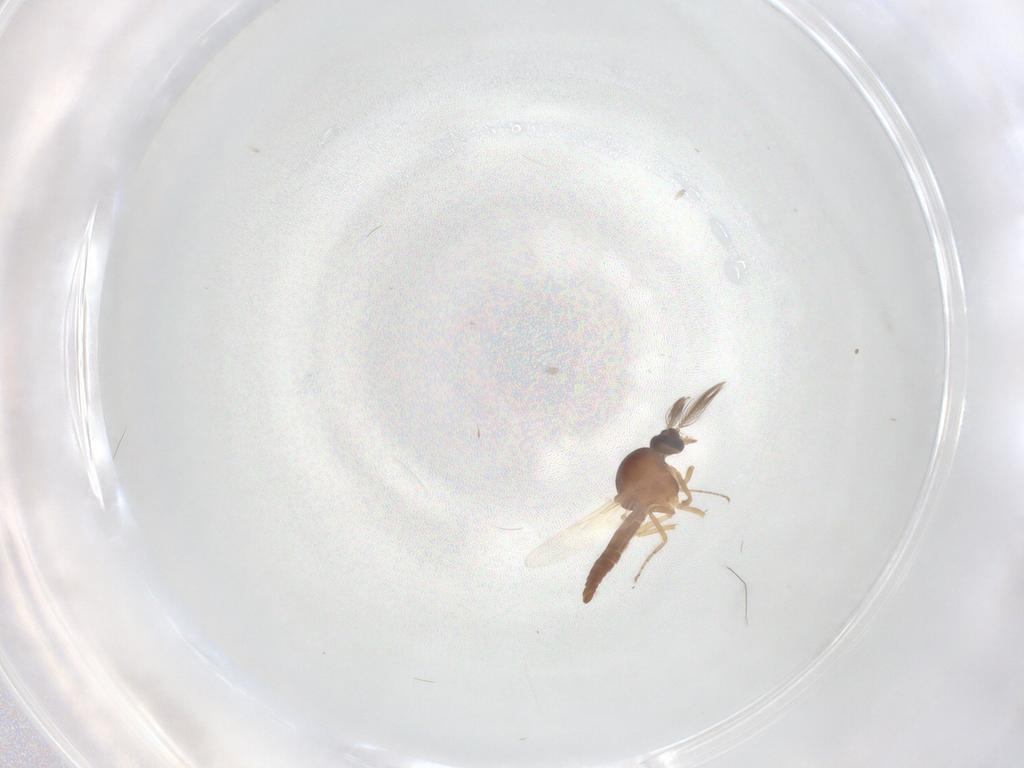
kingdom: Animalia
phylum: Arthropoda
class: Insecta
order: Diptera
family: Ceratopogonidae
